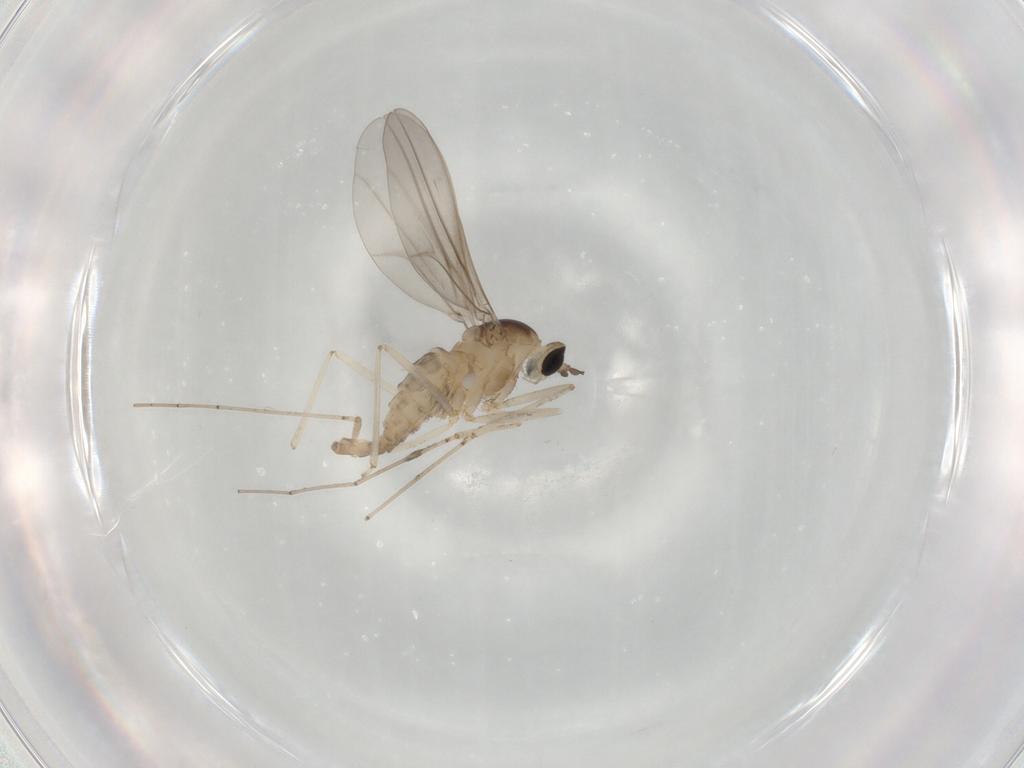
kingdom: Animalia
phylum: Arthropoda
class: Insecta
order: Diptera
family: Cecidomyiidae
